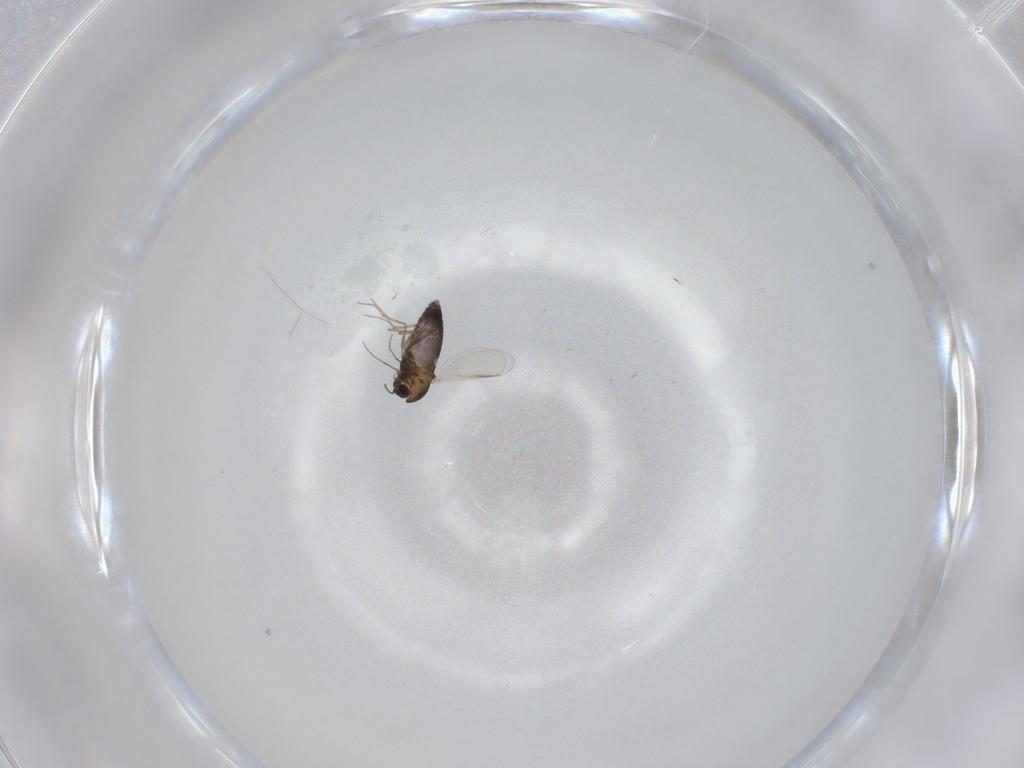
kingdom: Animalia
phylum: Arthropoda
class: Insecta
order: Diptera
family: Chironomidae
